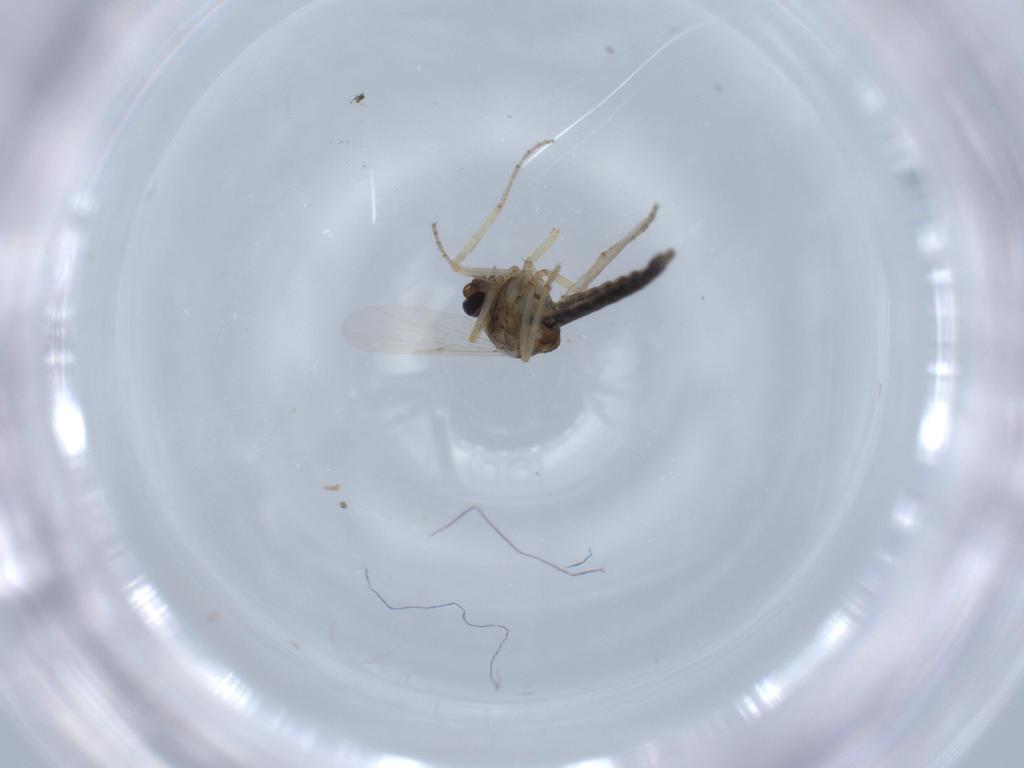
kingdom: Animalia
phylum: Arthropoda
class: Insecta
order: Diptera
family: Ceratopogonidae
